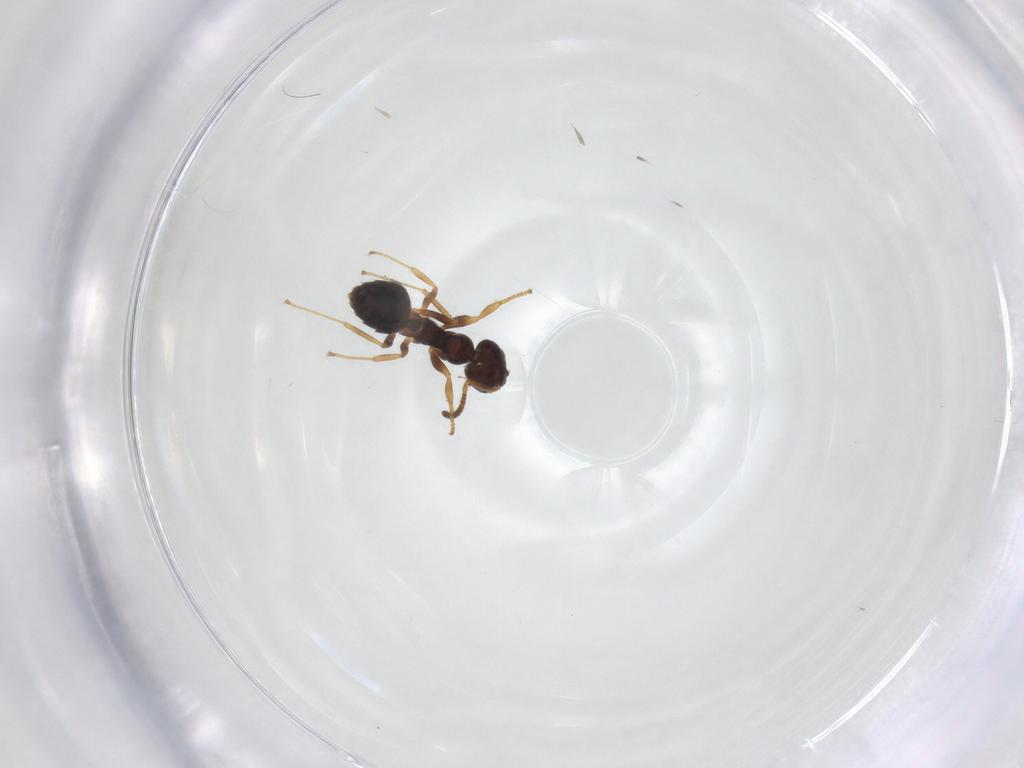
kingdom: Animalia
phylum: Arthropoda
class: Insecta
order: Hymenoptera
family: Formicidae
